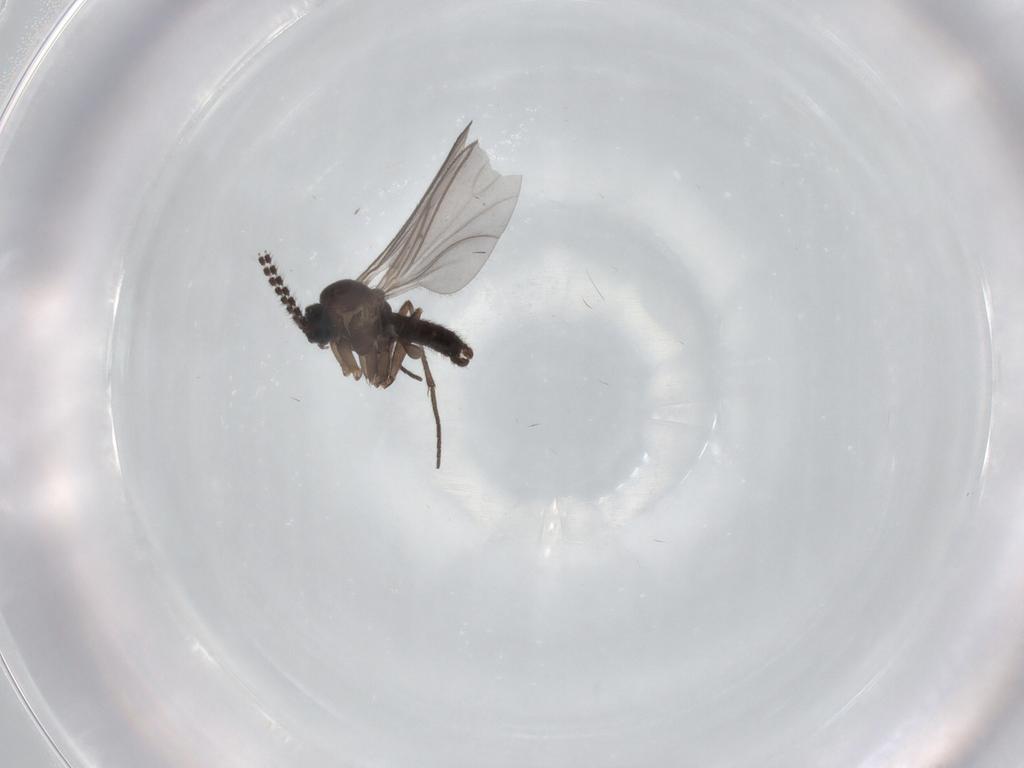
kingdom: Animalia
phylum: Arthropoda
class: Insecta
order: Diptera
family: Sciaridae
